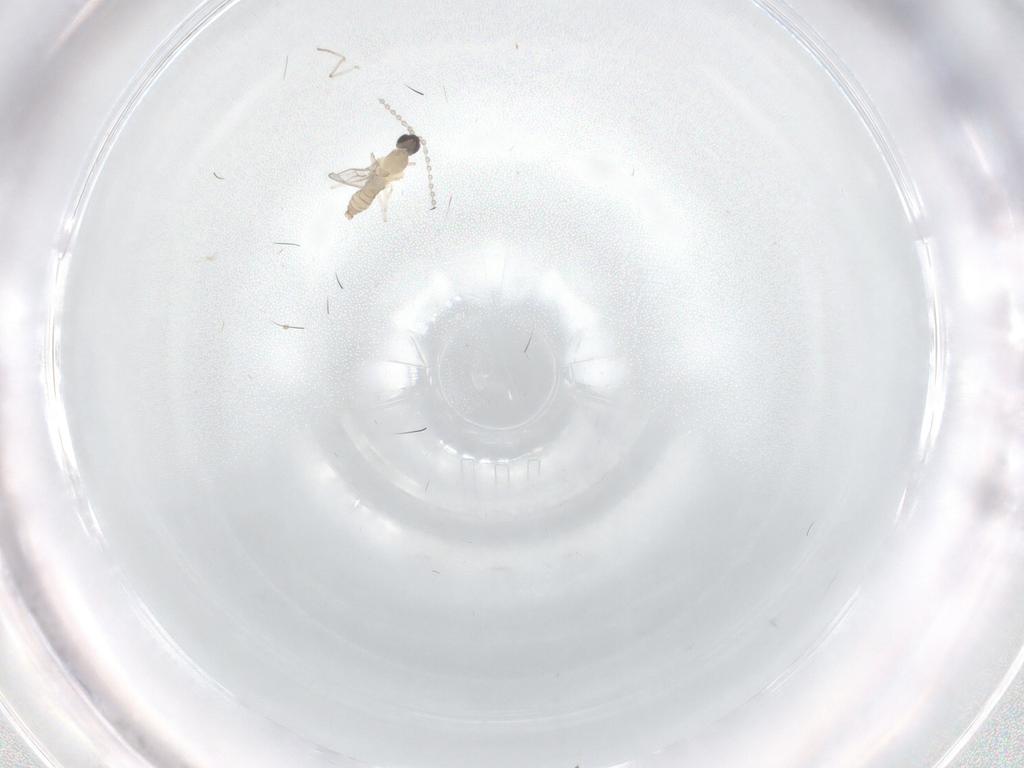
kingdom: Animalia
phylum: Arthropoda
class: Insecta
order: Diptera
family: Cecidomyiidae
